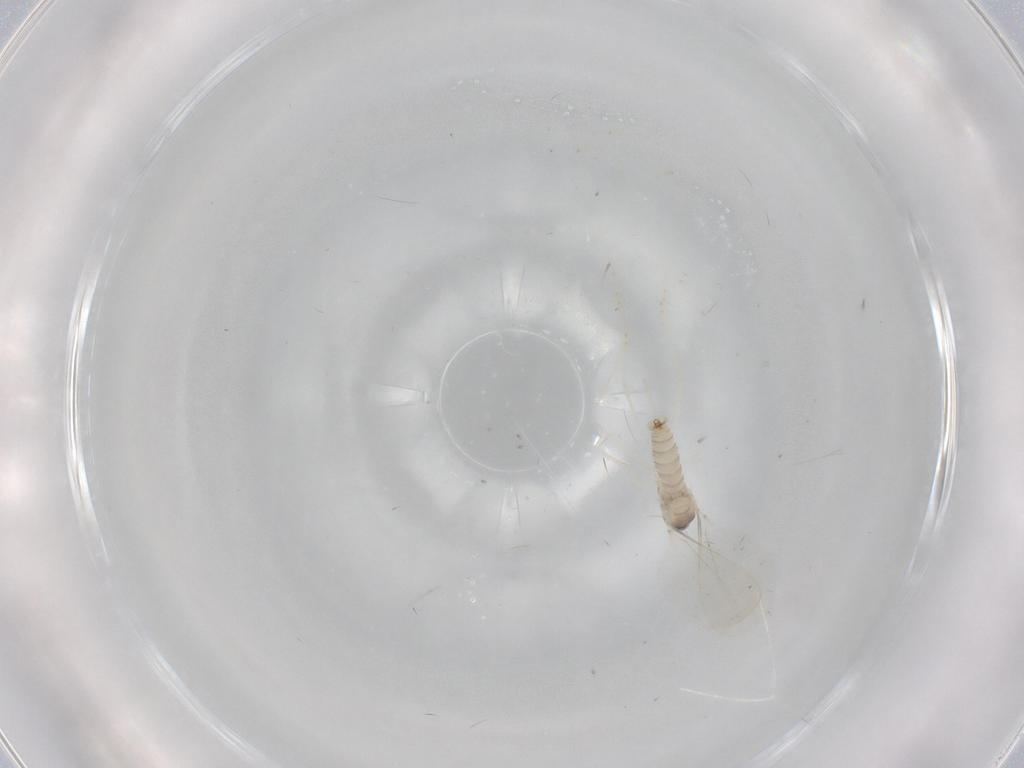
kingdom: Animalia
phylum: Arthropoda
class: Insecta
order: Diptera
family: Cecidomyiidae
